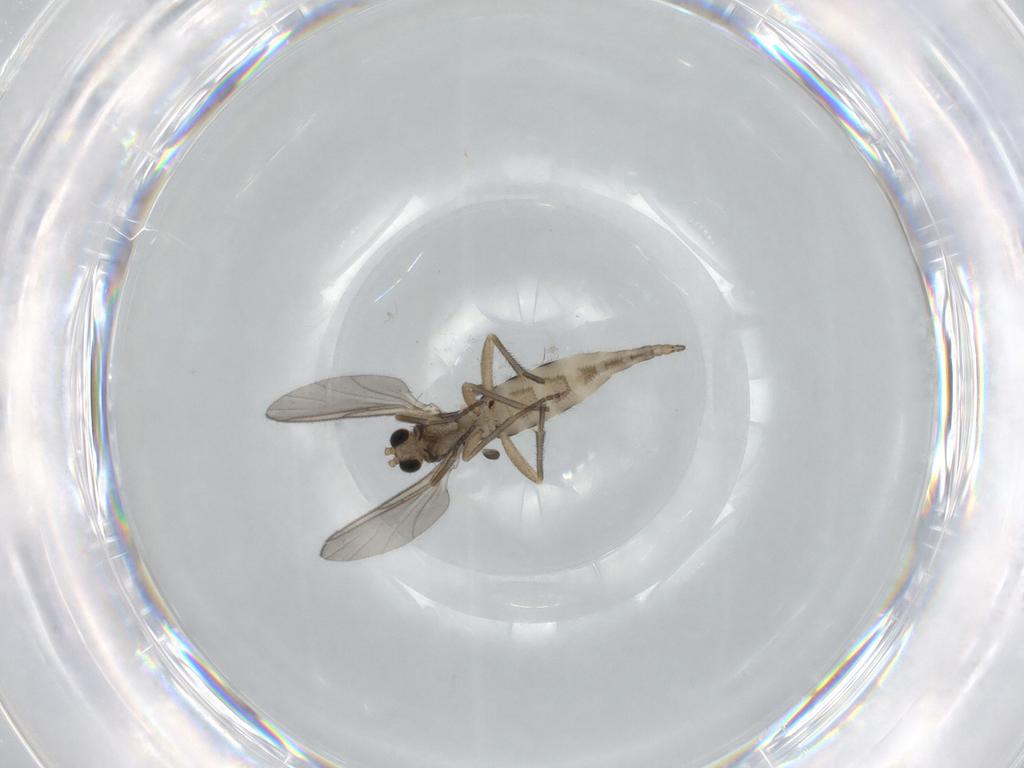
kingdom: Animalia
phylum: Arthropoda
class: Insecta
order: Diptera
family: Sciaridae
